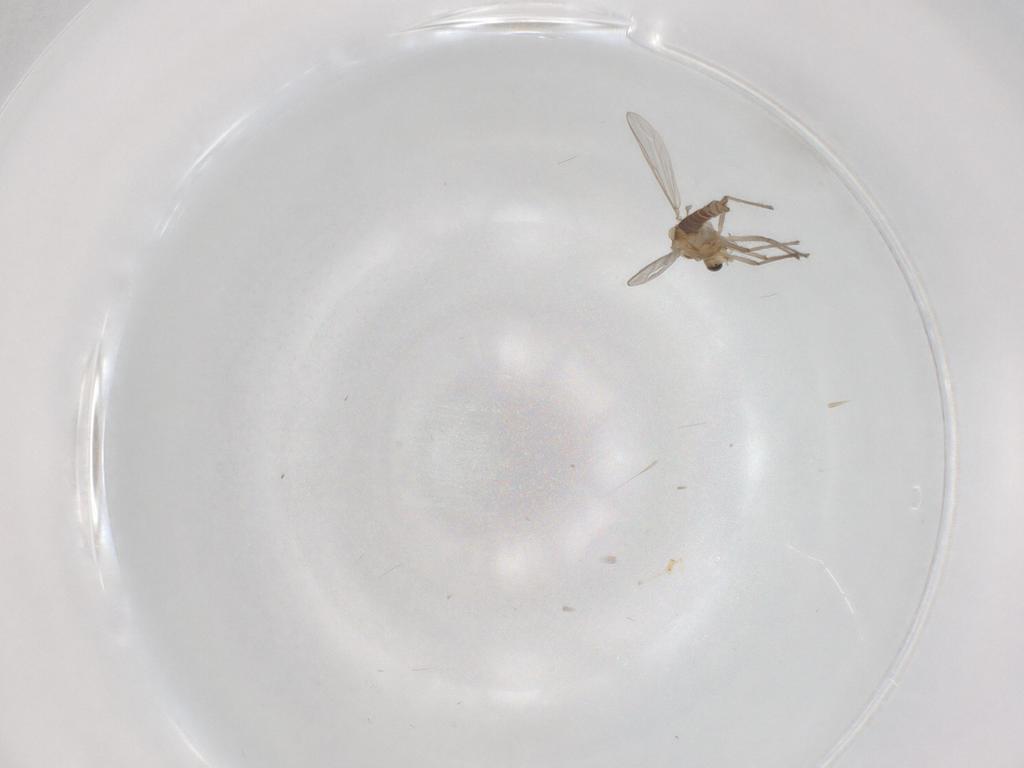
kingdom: Animalia
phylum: Arthropoda
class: Insecta
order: Diptera
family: Chironomidae
